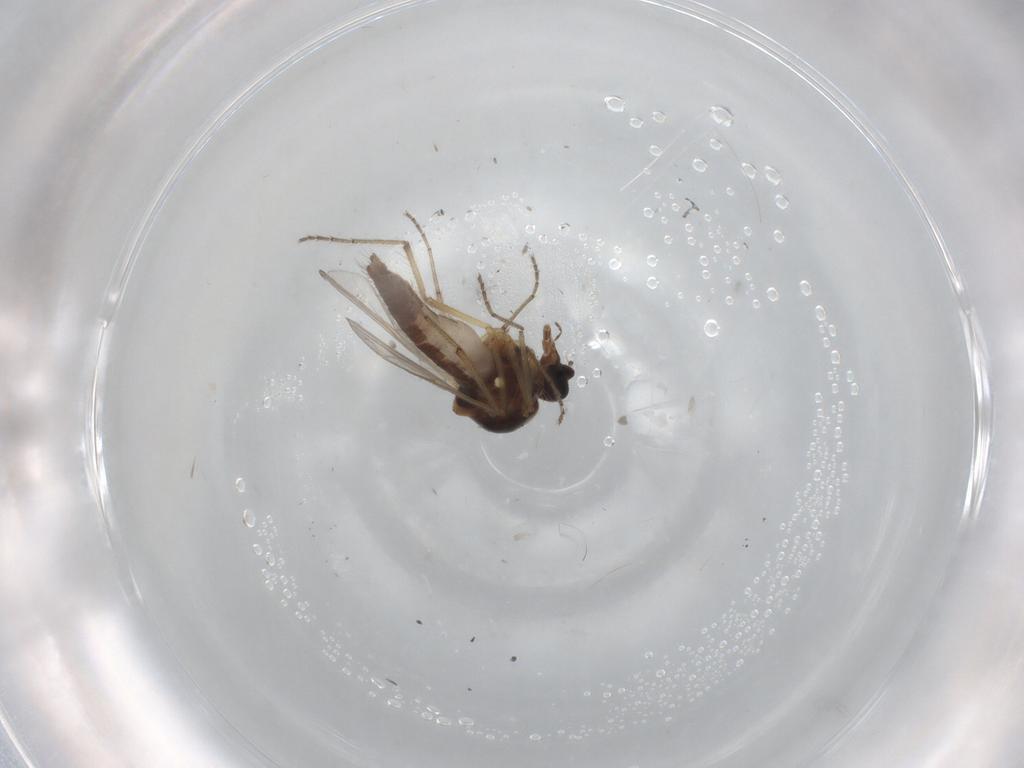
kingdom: Animalia
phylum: Arthropoda
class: Insecta
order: Diptera
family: Ceratopogonidae
